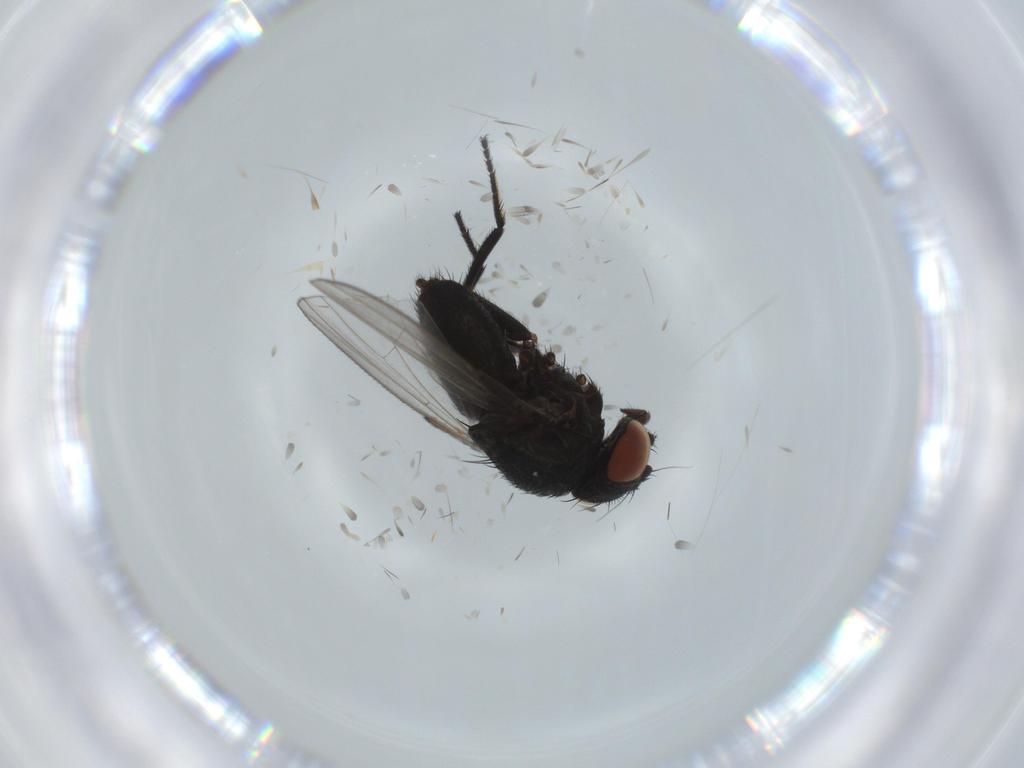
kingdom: Animalia
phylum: Arthropoda
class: Insecta
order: Diptera
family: Milichiidae
